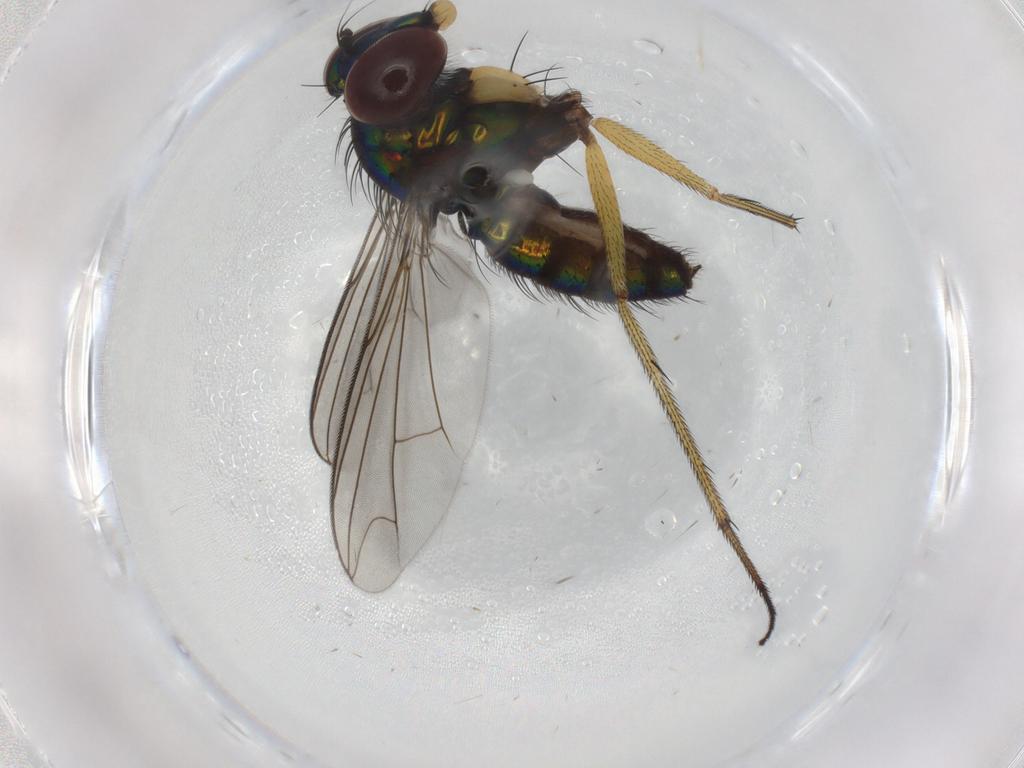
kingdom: Animalia
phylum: Arthropoda
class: Insecta
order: Diptera
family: Dolichopodidae
